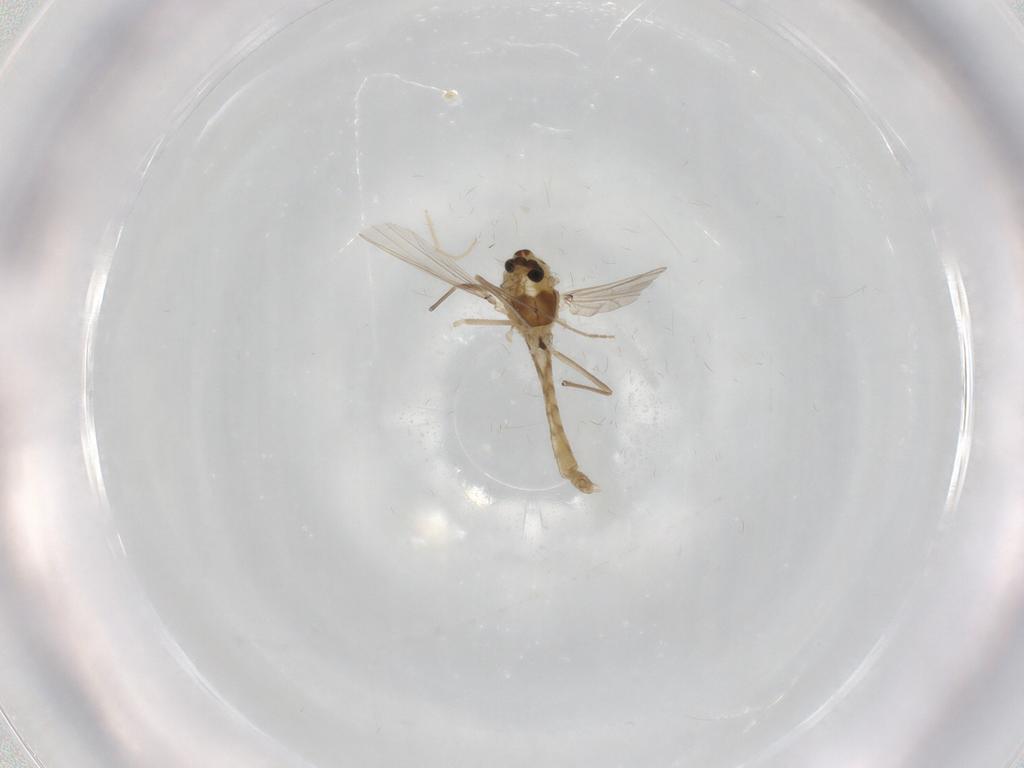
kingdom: Animalia
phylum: Arthropoda
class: Insecta
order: Diptera
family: Chironomidae
